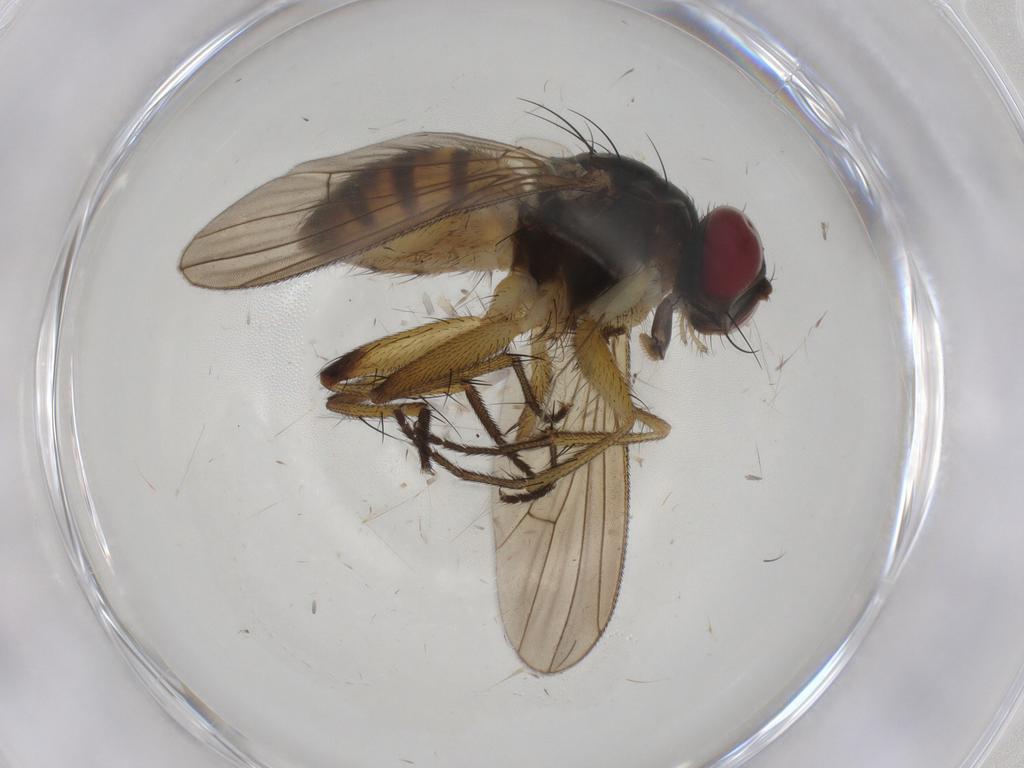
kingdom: Animalia
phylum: Arthropoda
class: Insecta
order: Diptera
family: Muscidae
